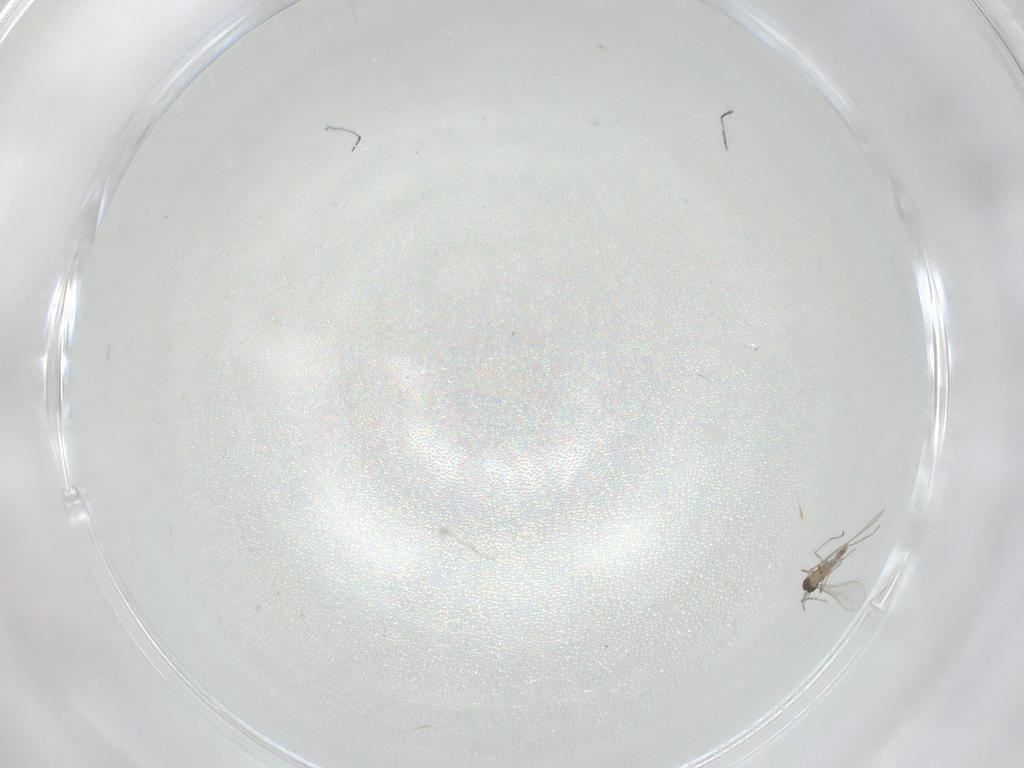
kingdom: Animalia
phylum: Arthropoda
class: Insecta
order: Diptera
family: Cecidomyiidae
